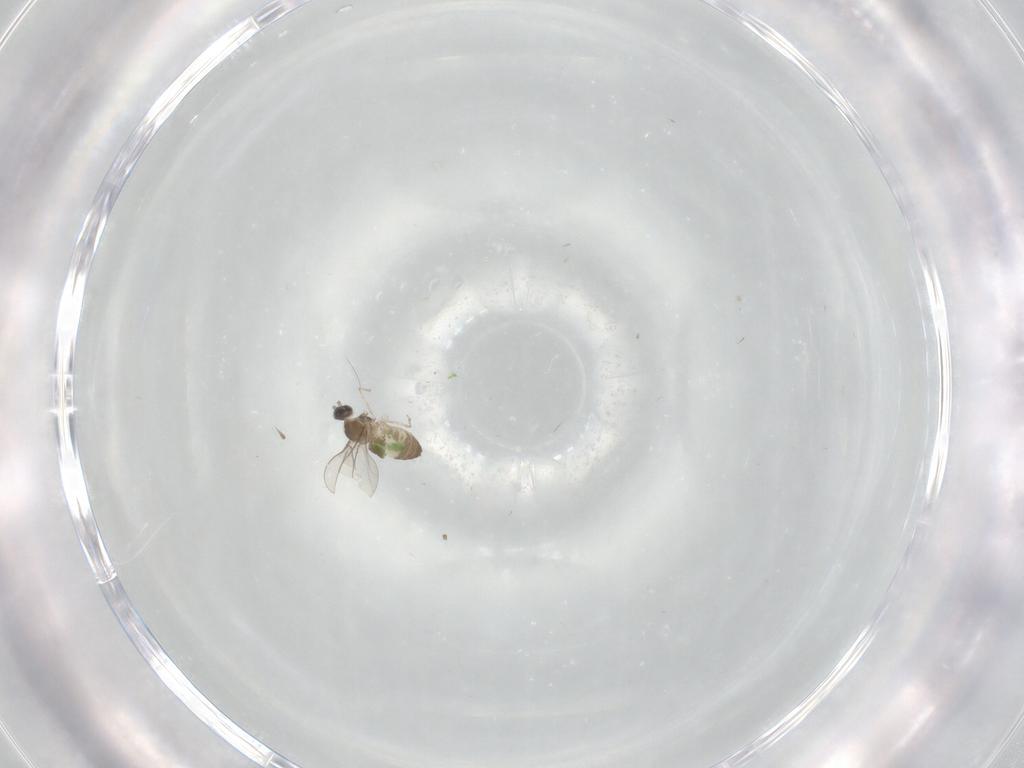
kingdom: Animalia
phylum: Arthropoda
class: Insecta
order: Diptera
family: Cecidomyiidae
